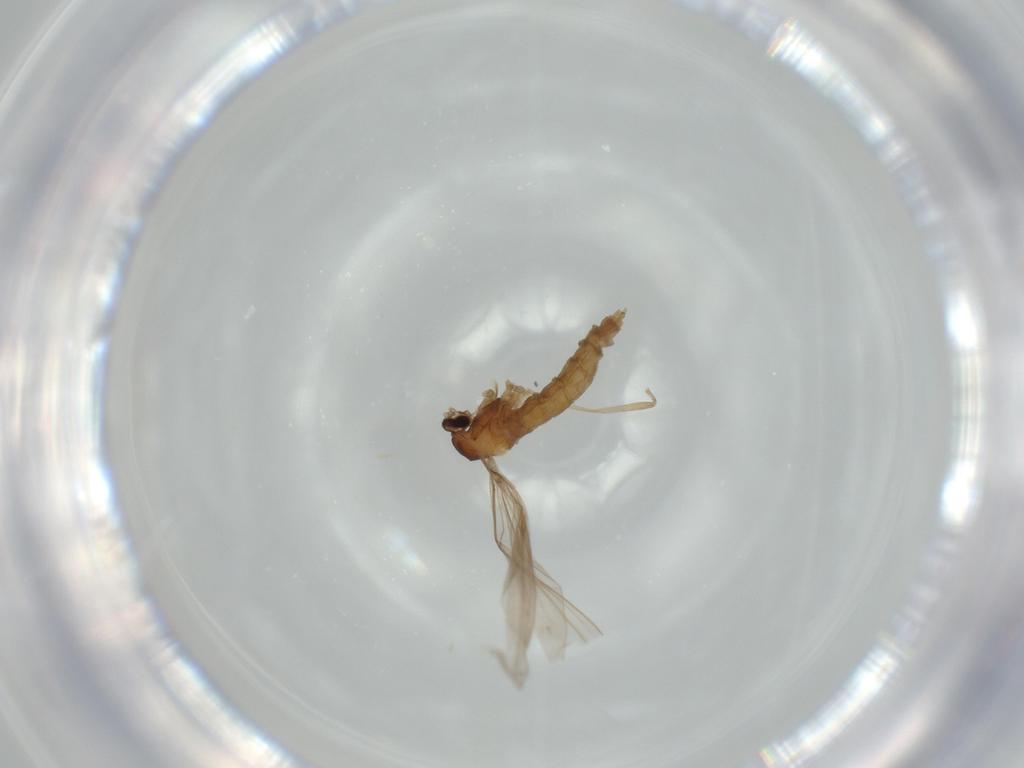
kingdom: Animalia
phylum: Arthropoda
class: Insecta
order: Diptera
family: Cecidomyiidae
